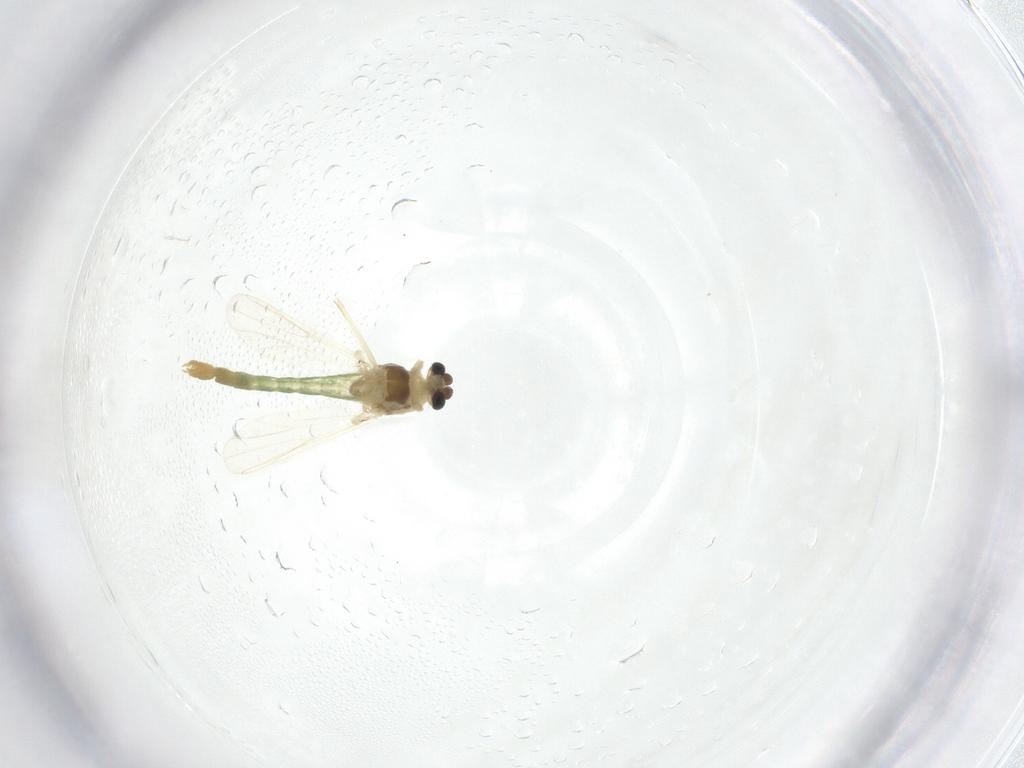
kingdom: Animalia
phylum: Arthropoda
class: Insecta
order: Diptera
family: Chironomidae
